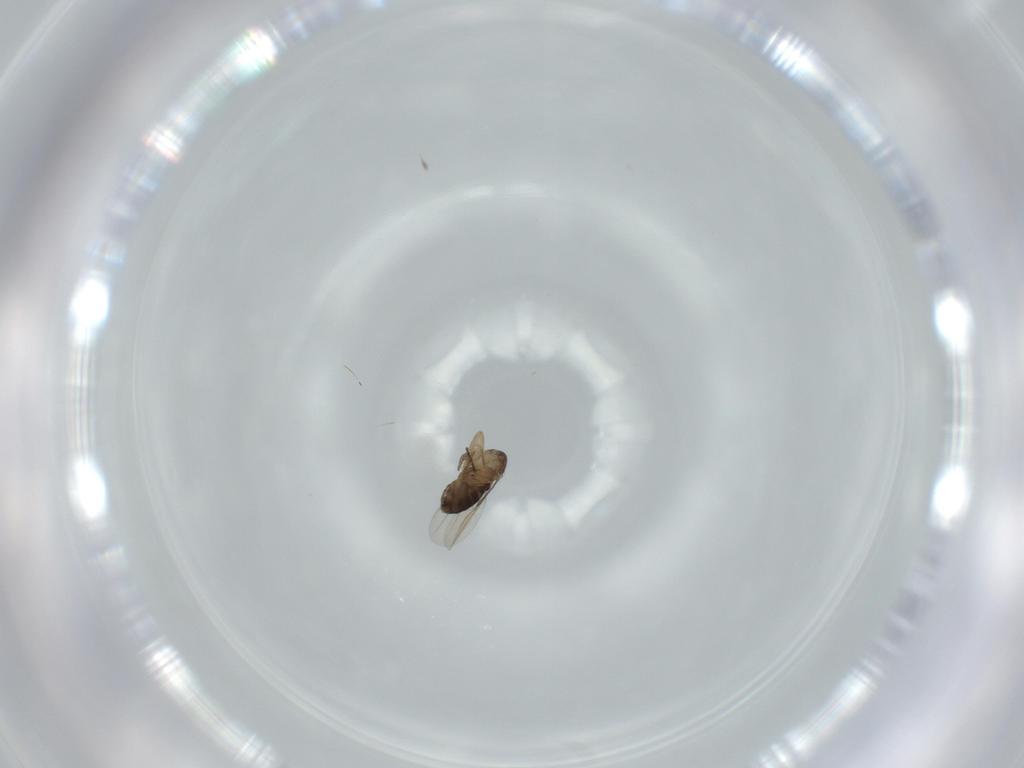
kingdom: Animalia
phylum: Arthropoda
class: Insecta
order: Diptera
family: Phoridae
